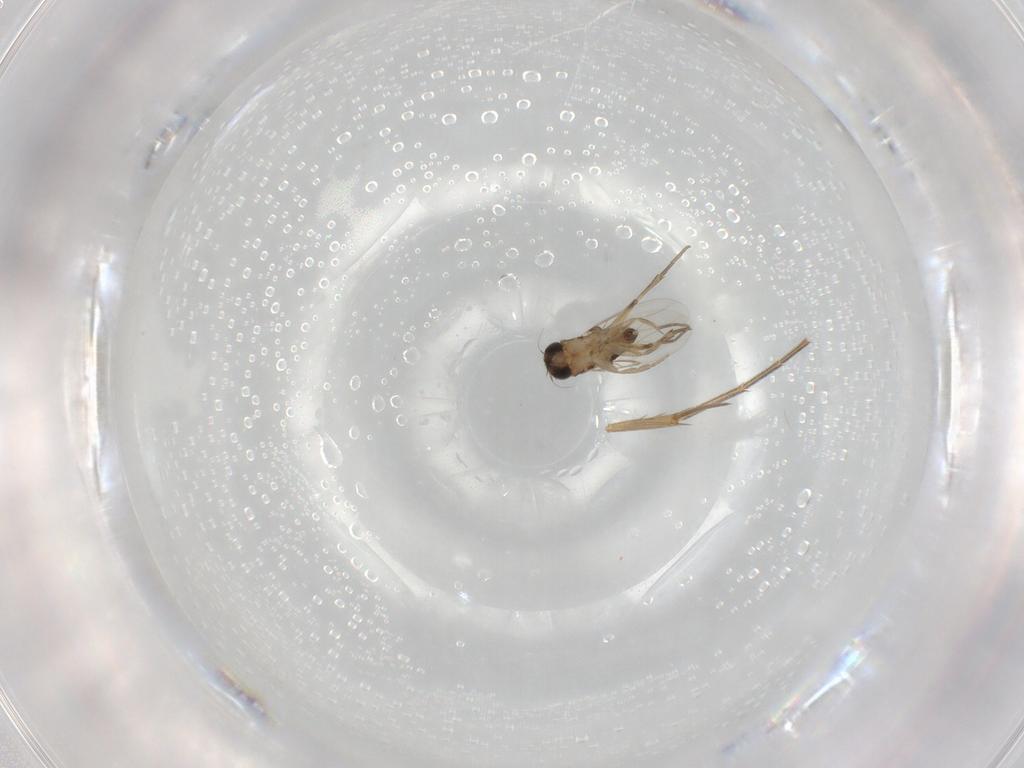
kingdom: Animalia
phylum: Arthropoda
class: Insecta
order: Diptera
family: Phoridae
